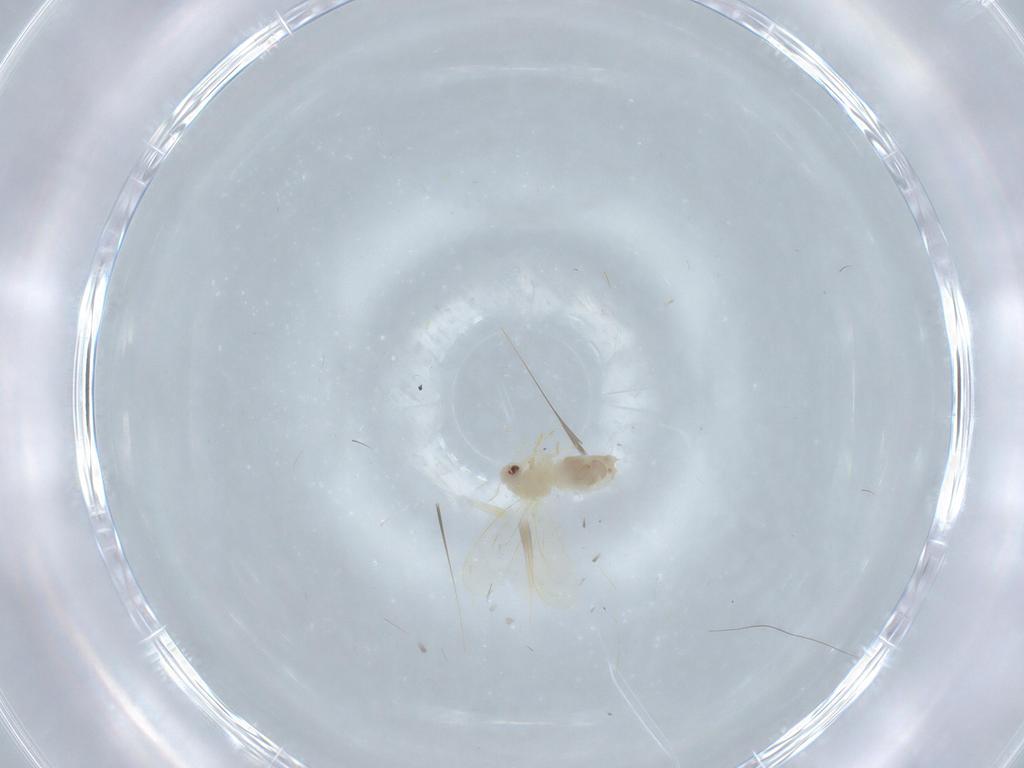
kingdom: Animalia
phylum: Arthropoda
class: Insecta
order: Hemiptera
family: Aleyrodidae
